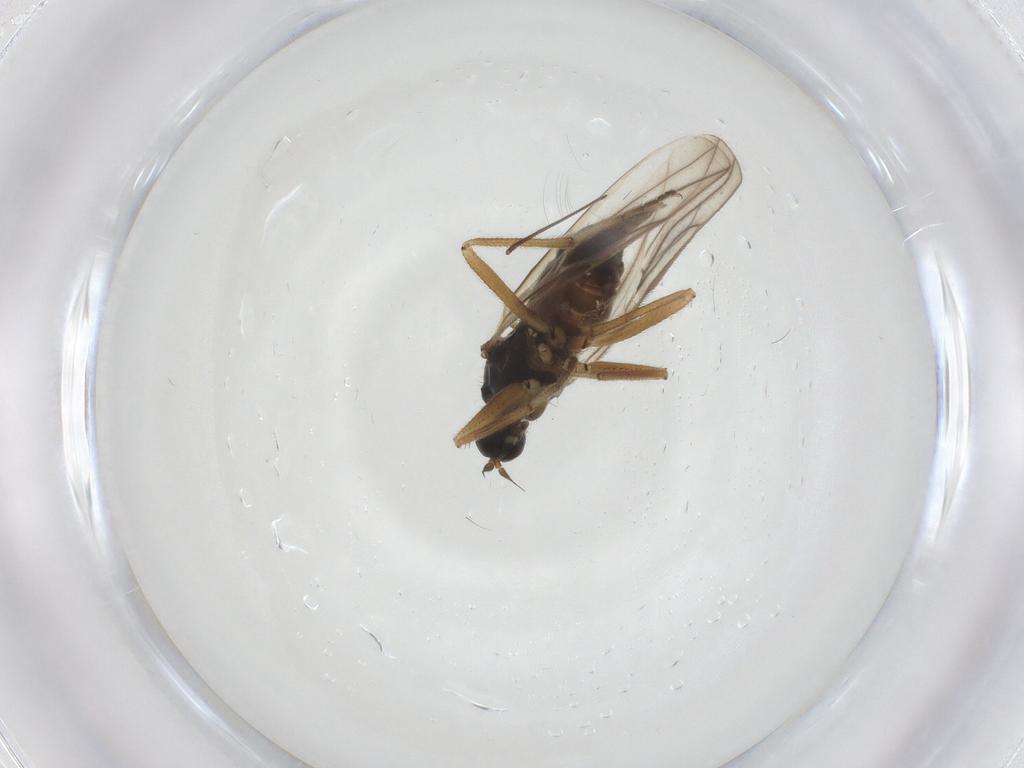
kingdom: Animalia
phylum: Arthropoda
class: Insecta
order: Diptera
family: Hybotidae
